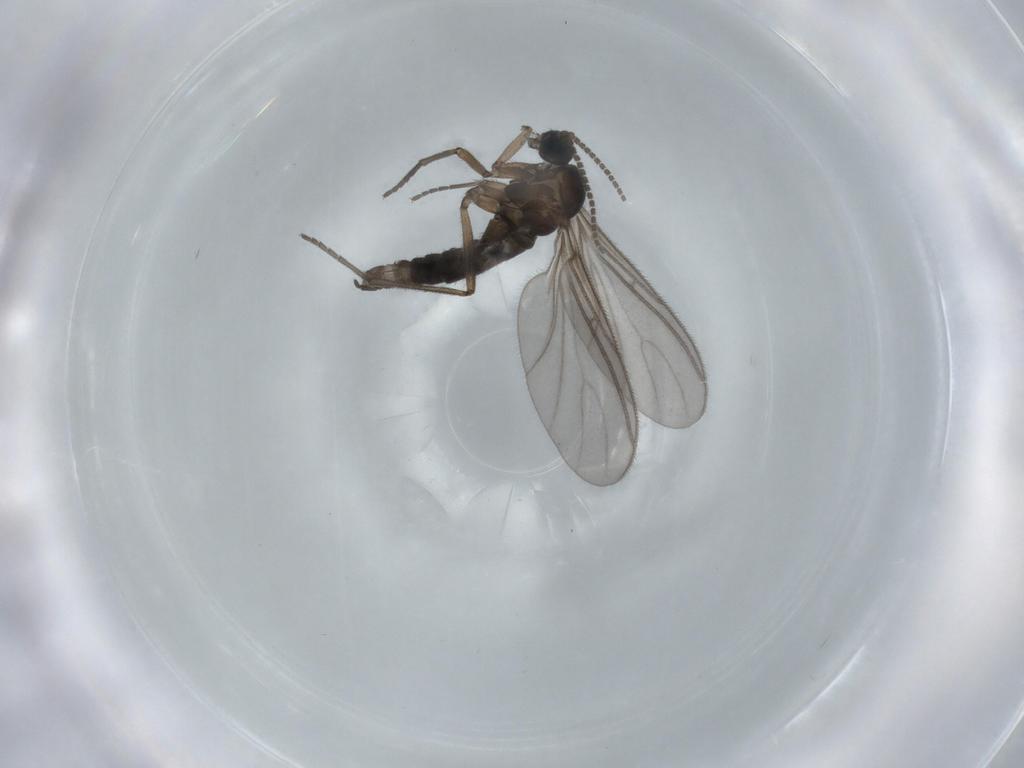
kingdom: Animalia
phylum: Arthropoda
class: Insecta
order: Diptera
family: Sciaridae
